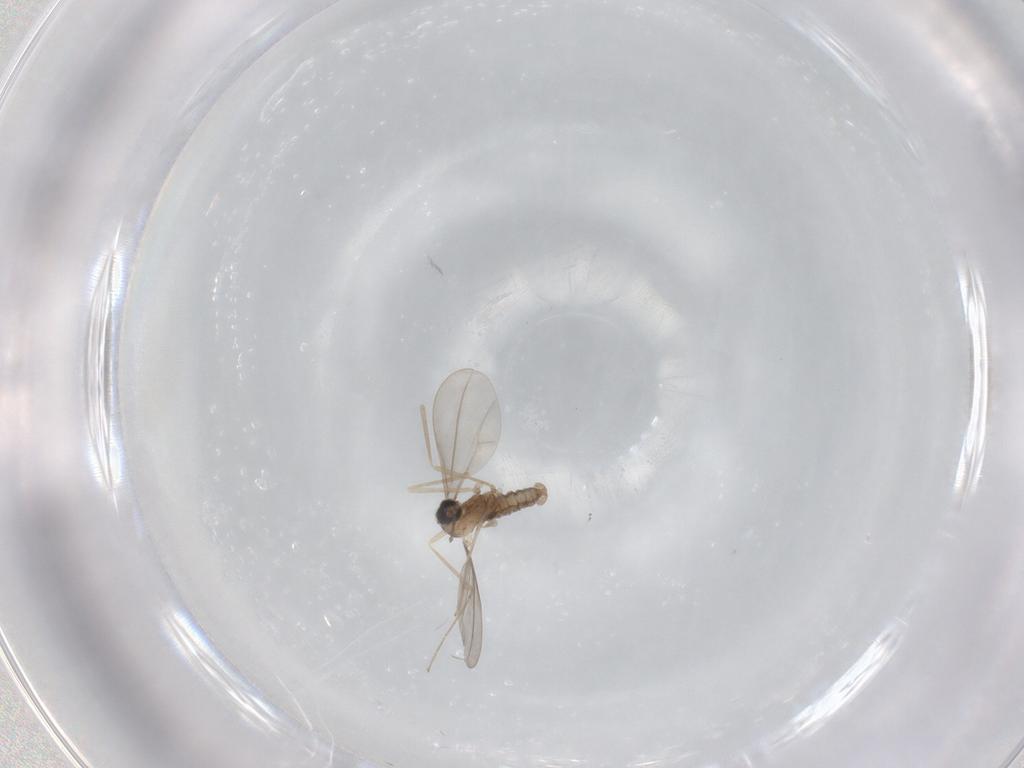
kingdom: Animalia
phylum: Arthropoda
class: Insecta
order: Diptera
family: Cecidomyiidae
